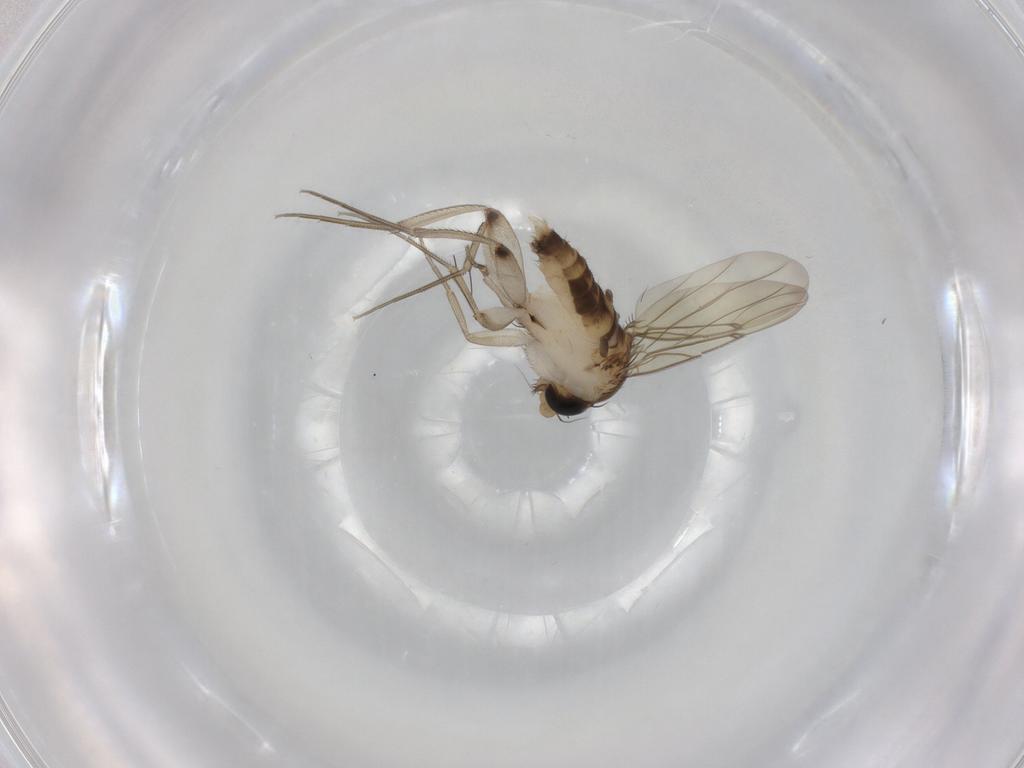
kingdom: Animalia
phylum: Arthropoda
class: Insecta
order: Diptera
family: Phoridae
